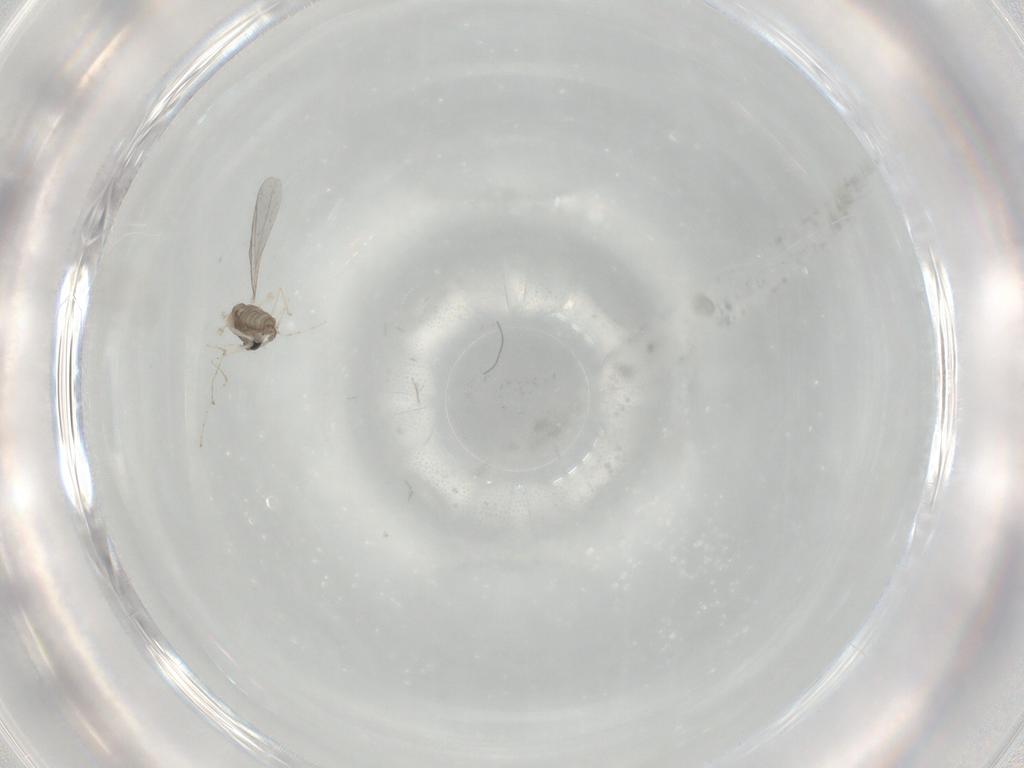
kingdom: Animalia
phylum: Arthropoda
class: Insecta
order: Diptera
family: Cecidomyiidae
